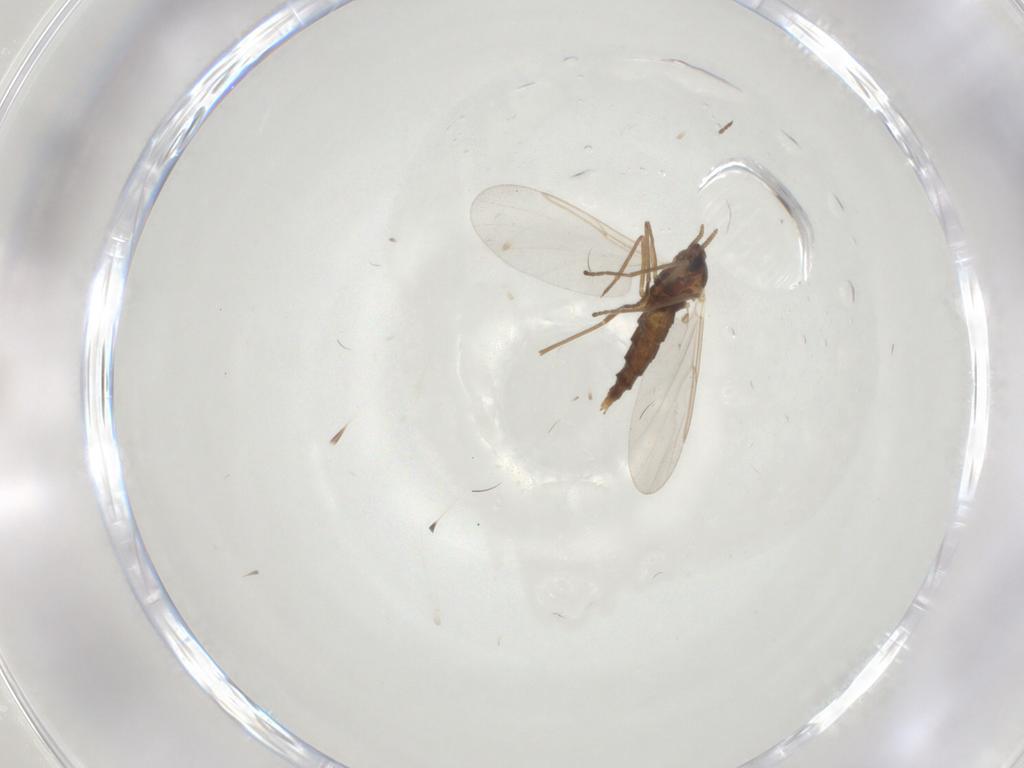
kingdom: Animalia
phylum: Arthropoda
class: Insecta
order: Diptera
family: Cecidomyiidae
